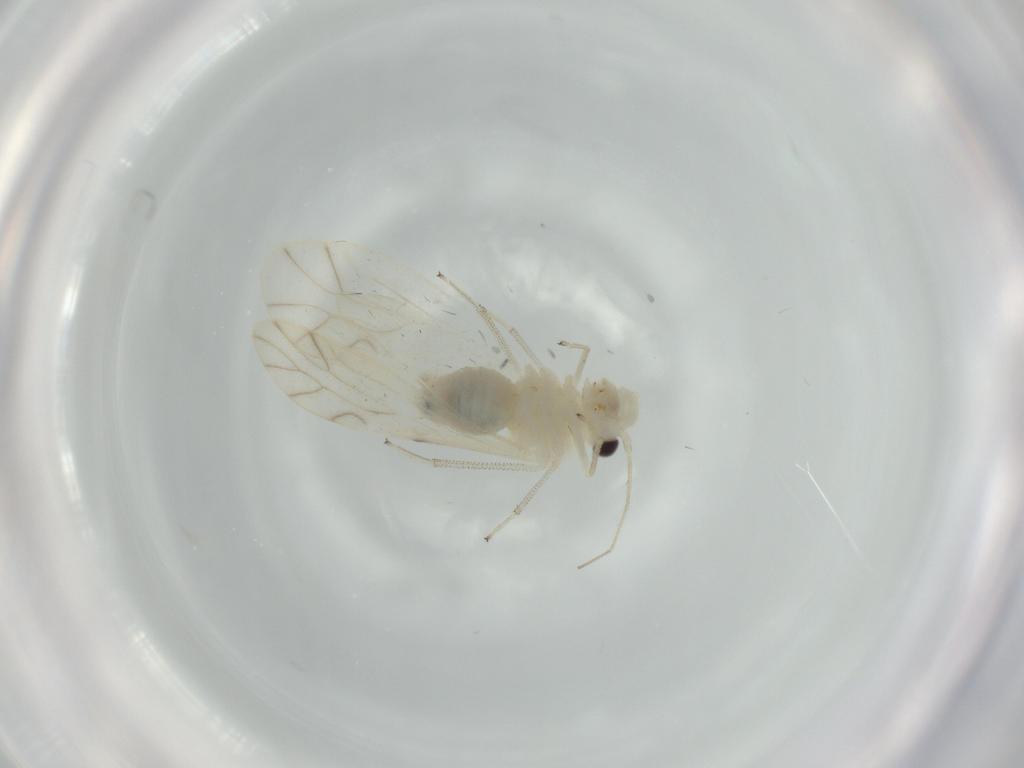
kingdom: Animalia
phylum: Arthropoda
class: Insecta
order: Psocodea
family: Caeciliusidae
